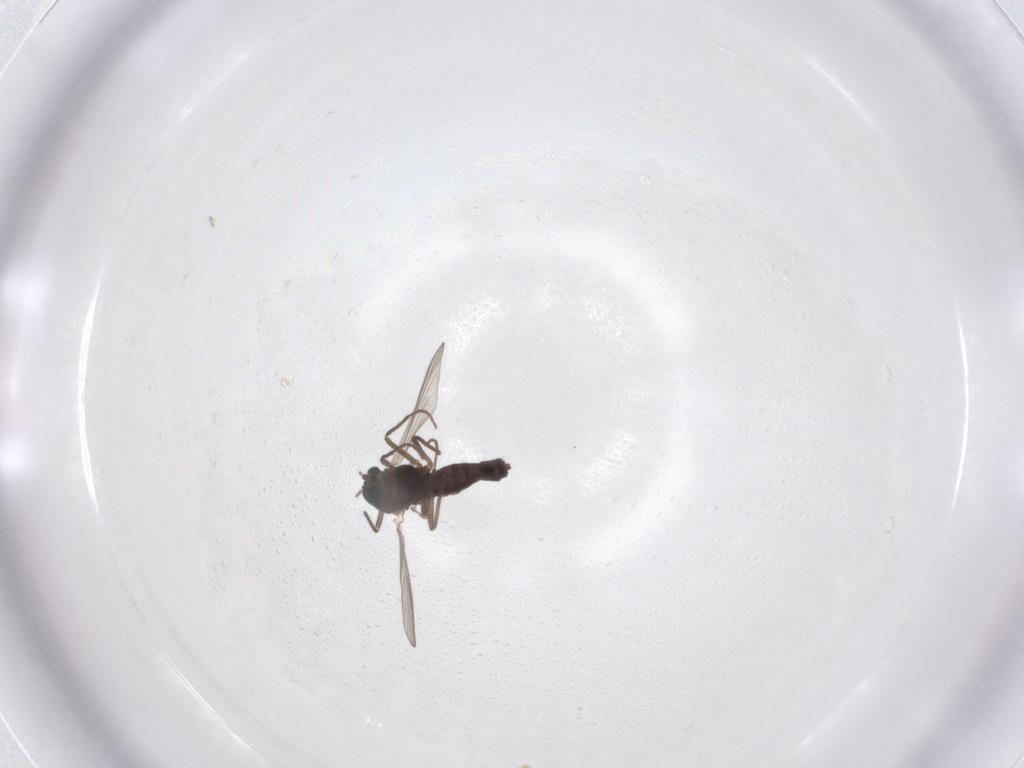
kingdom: Animalia
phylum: Arthropoda
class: Insecta
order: Diptera
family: Chironomidae
